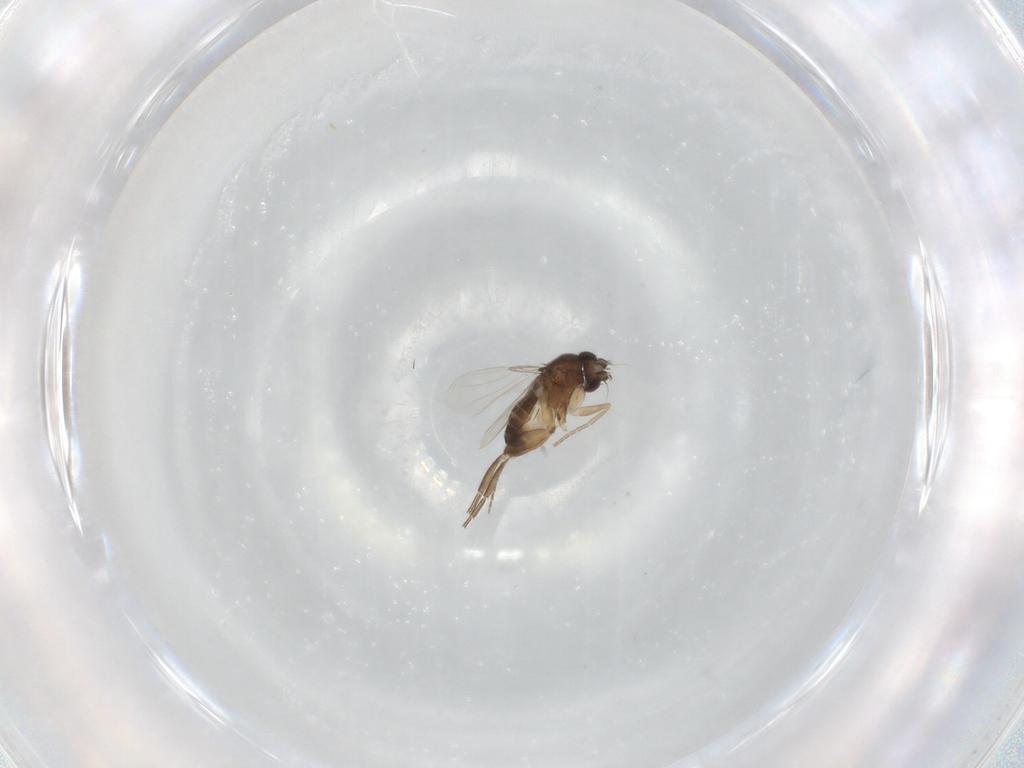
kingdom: Animalia
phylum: Arthropoda
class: Insecta
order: Diptera
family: Phoridae
